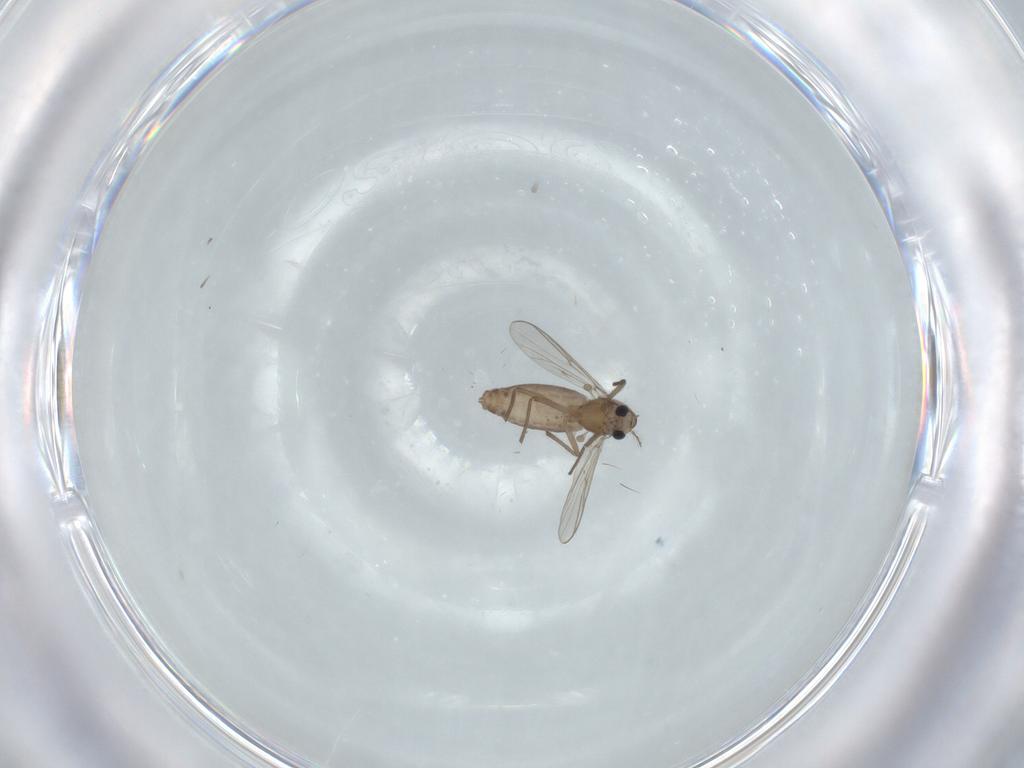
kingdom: Animalia
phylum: Arthropoda
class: Insecta
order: Diptera
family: Chironomidae
